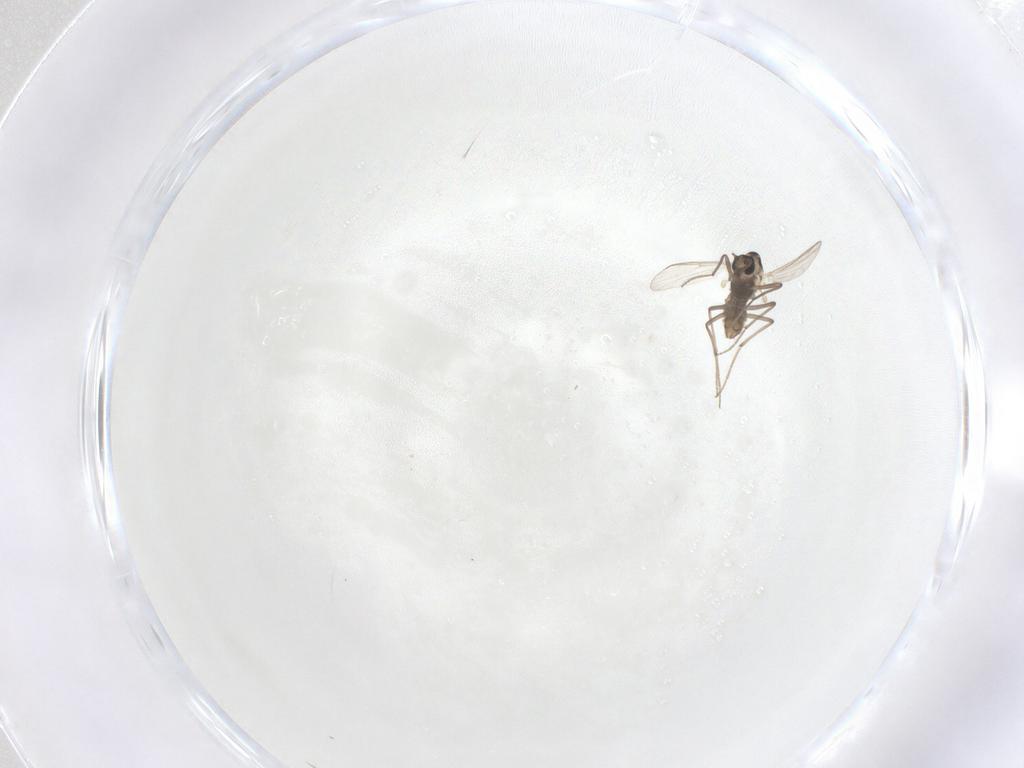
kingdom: Animalia
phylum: Arthropoda
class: Insecta
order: Diptera
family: Chironomidae
